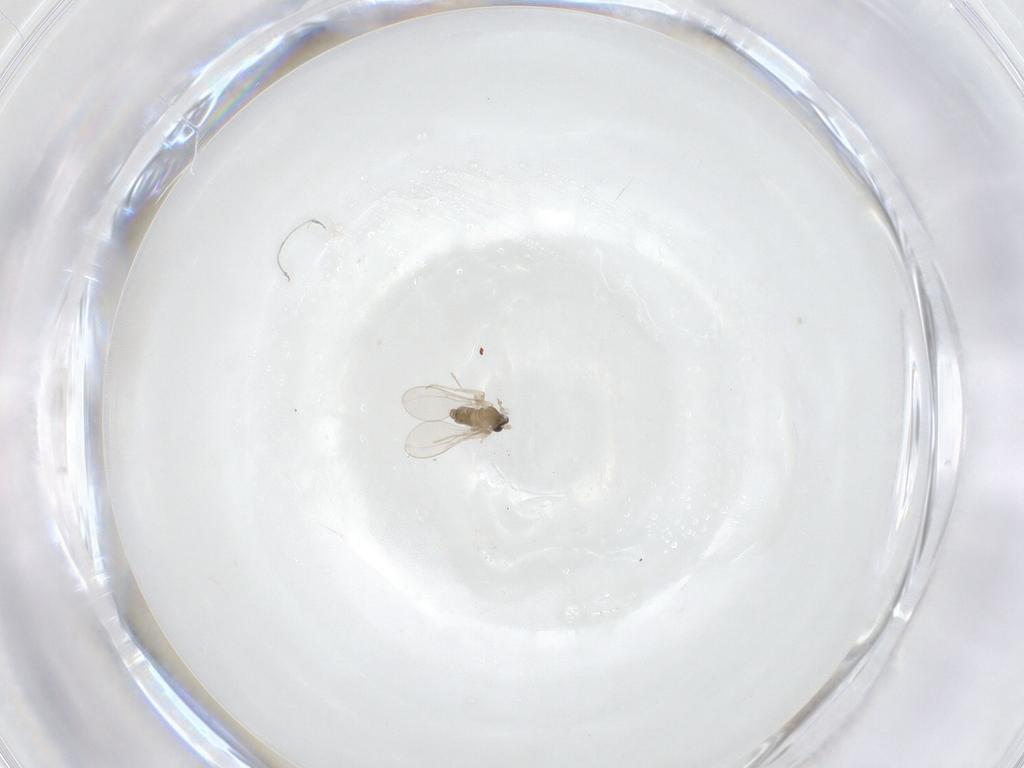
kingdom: Animalia
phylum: Arthropoda
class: Insecta
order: Diptera
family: Cecidomyiidae
